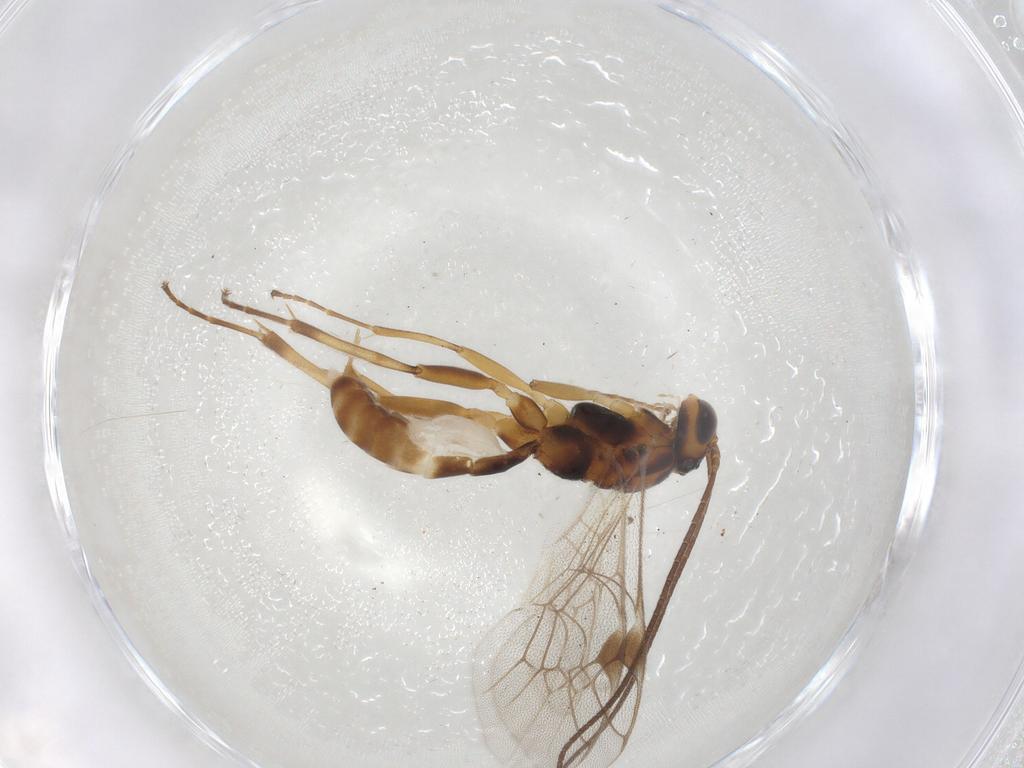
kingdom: Animalia
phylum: Arthropoda
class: Insecta
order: Hymenoptera
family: Ichneumonidae
